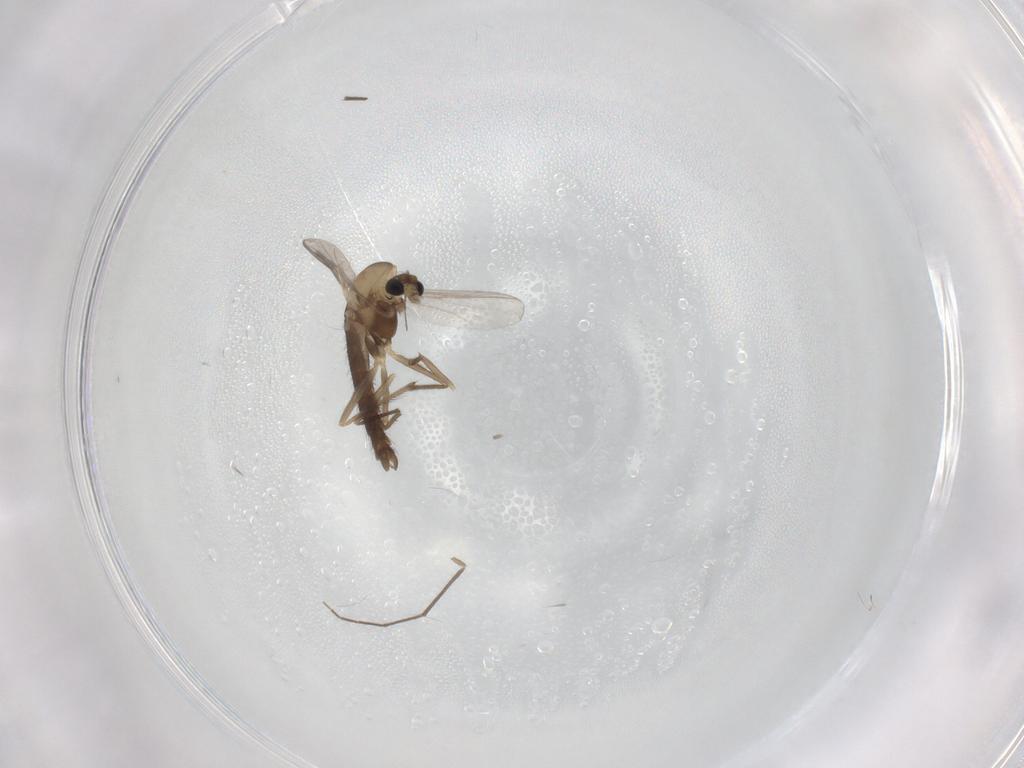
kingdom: Animalia
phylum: Arthropoda
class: Insecta
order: Diptera
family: Chironomidae
